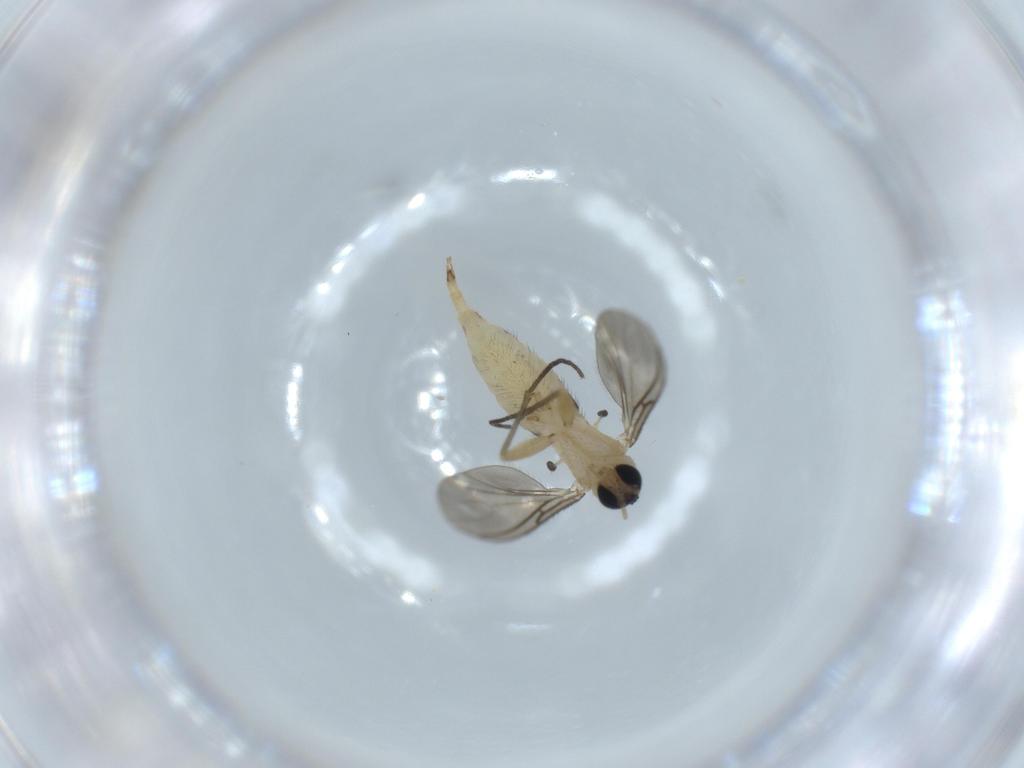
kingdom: Animalia
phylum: Arthropoda
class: Insecta
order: Diptera
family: Sciaridae
